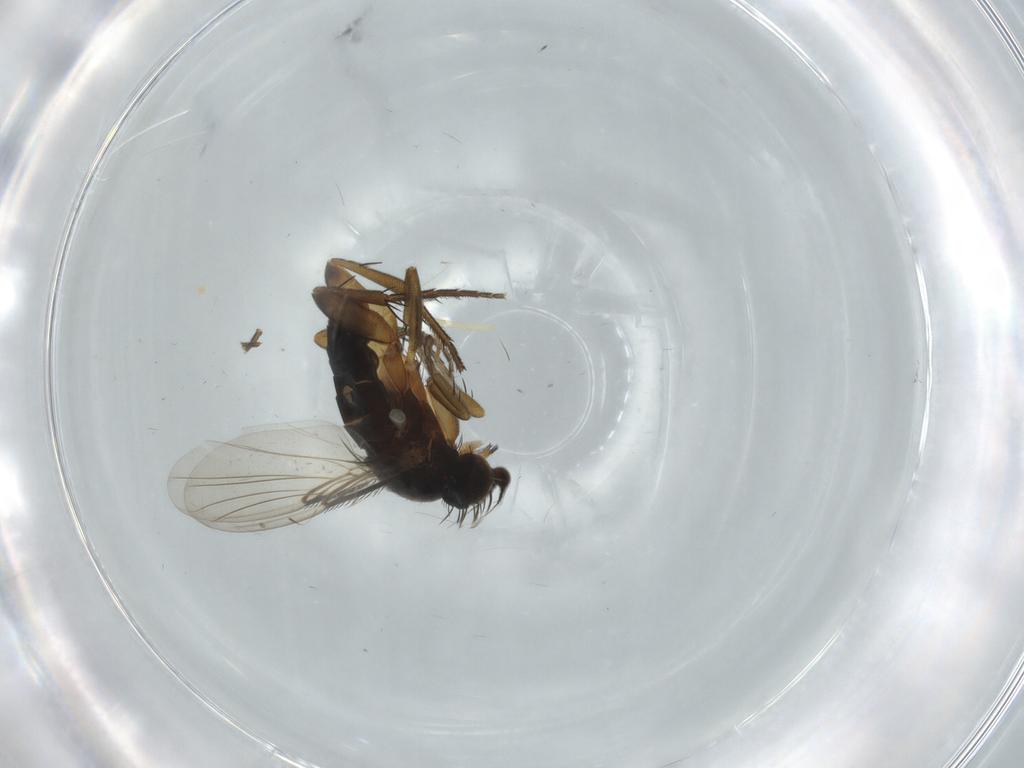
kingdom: Animalia
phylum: Arthropoda
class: Insecta
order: Diptera
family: Phoridae
